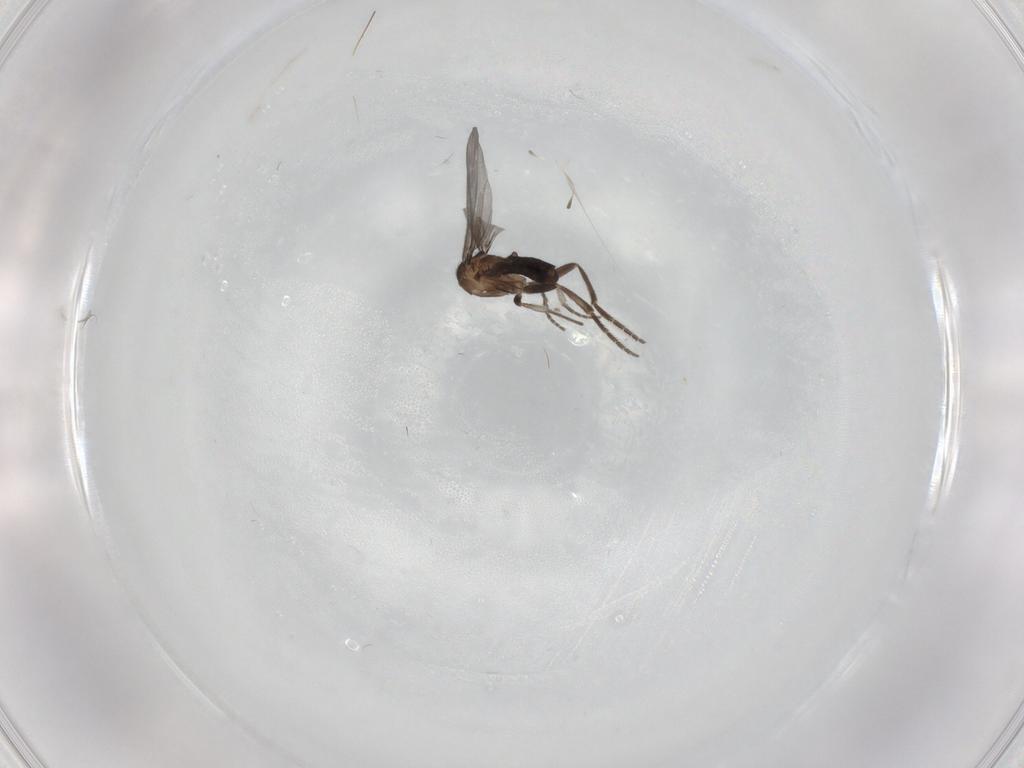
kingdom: Animalia
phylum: Arthropoda
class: Insecta
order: Diptera
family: Phoridae
